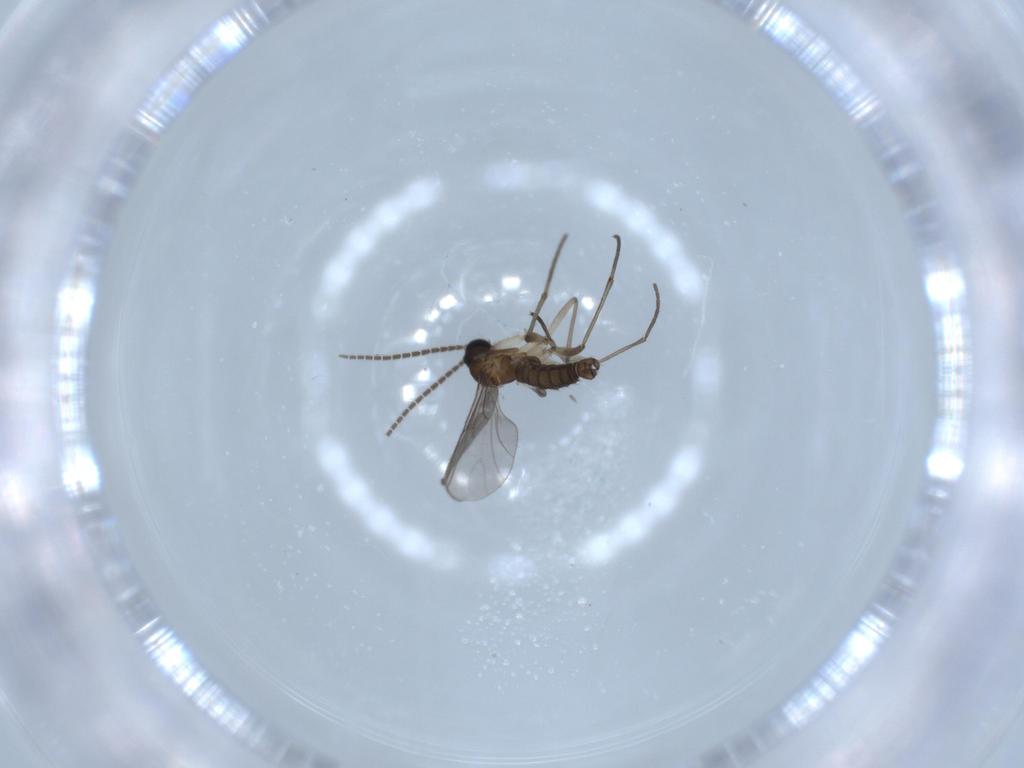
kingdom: Animalia
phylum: Arthropoda
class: Insecta
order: Diptera
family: Sciaridae
